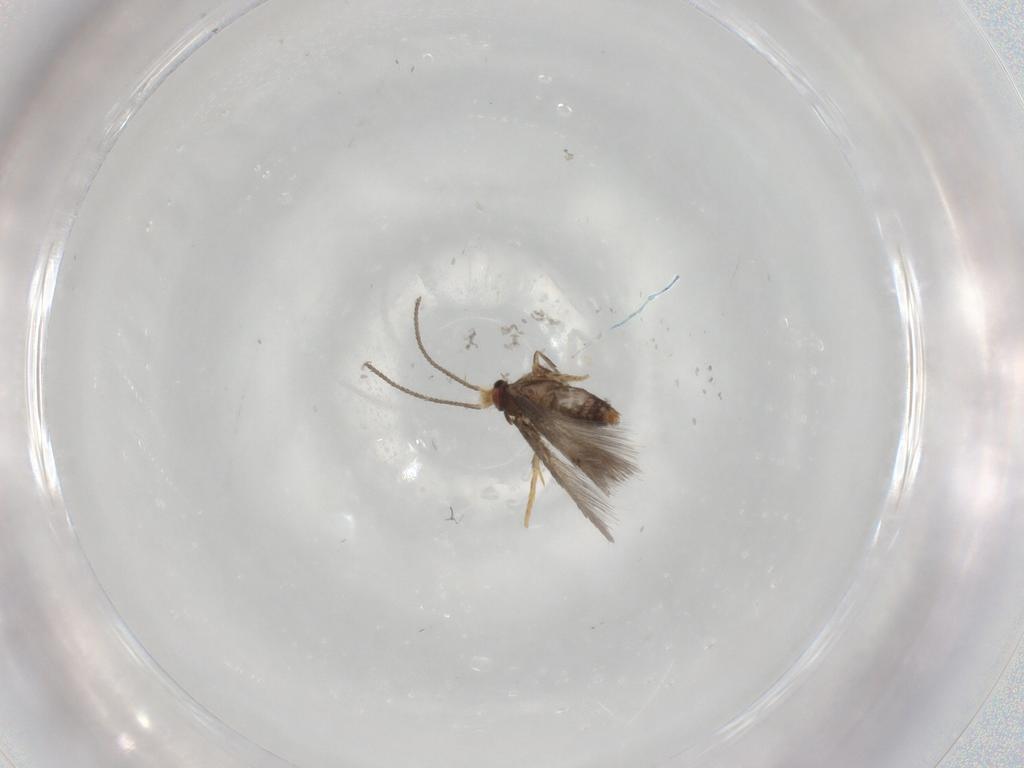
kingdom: Animalia
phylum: Arthropoda
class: Insecta
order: Lepidoptera
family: Nepticulidae
